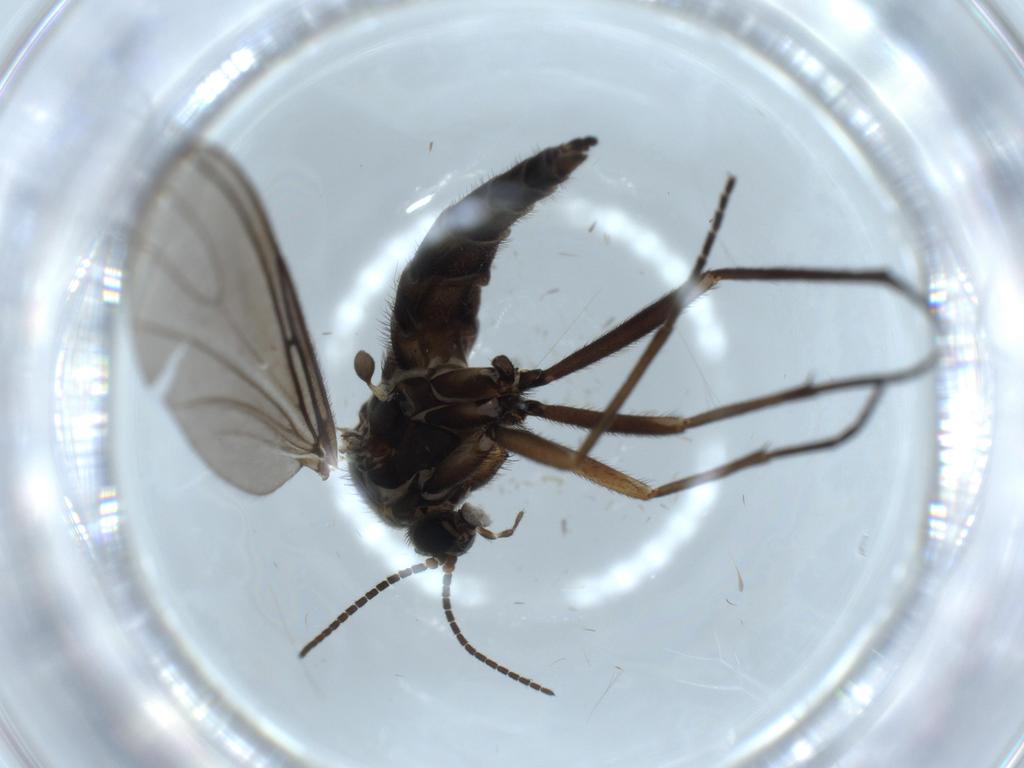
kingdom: Animalia
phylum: Arthropoda
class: Insecta
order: Diptera
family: Sciaridae
